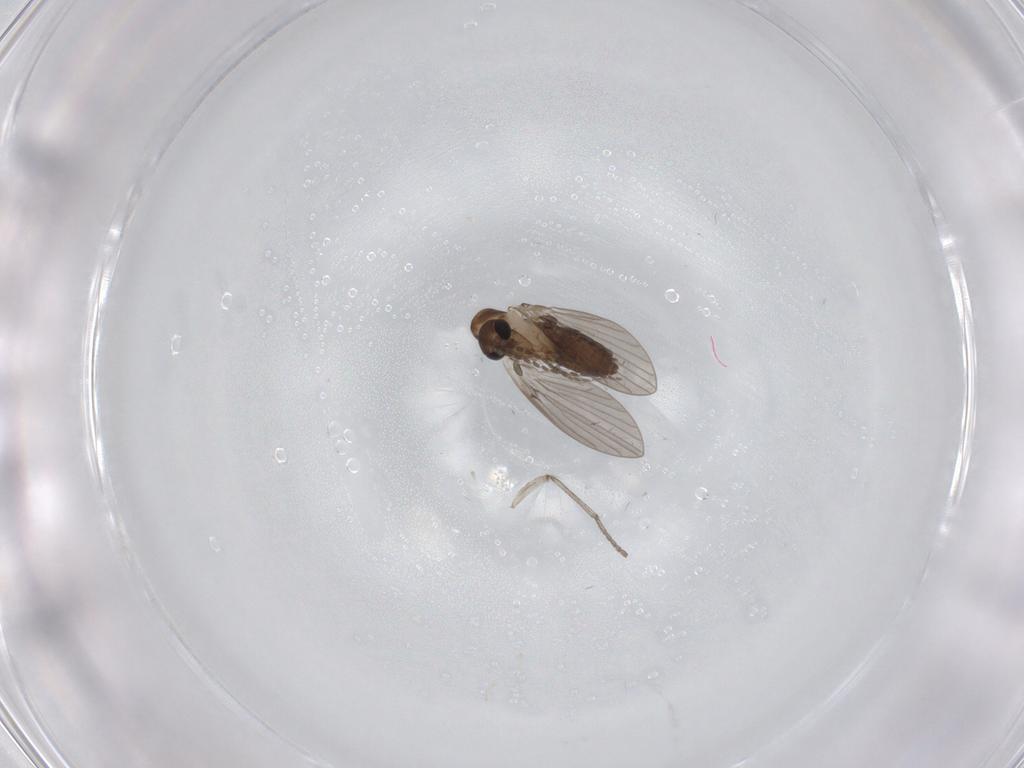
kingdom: Animalia
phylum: Arthropoda
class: Insecta
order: Diptera
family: Cecidomyiidae
